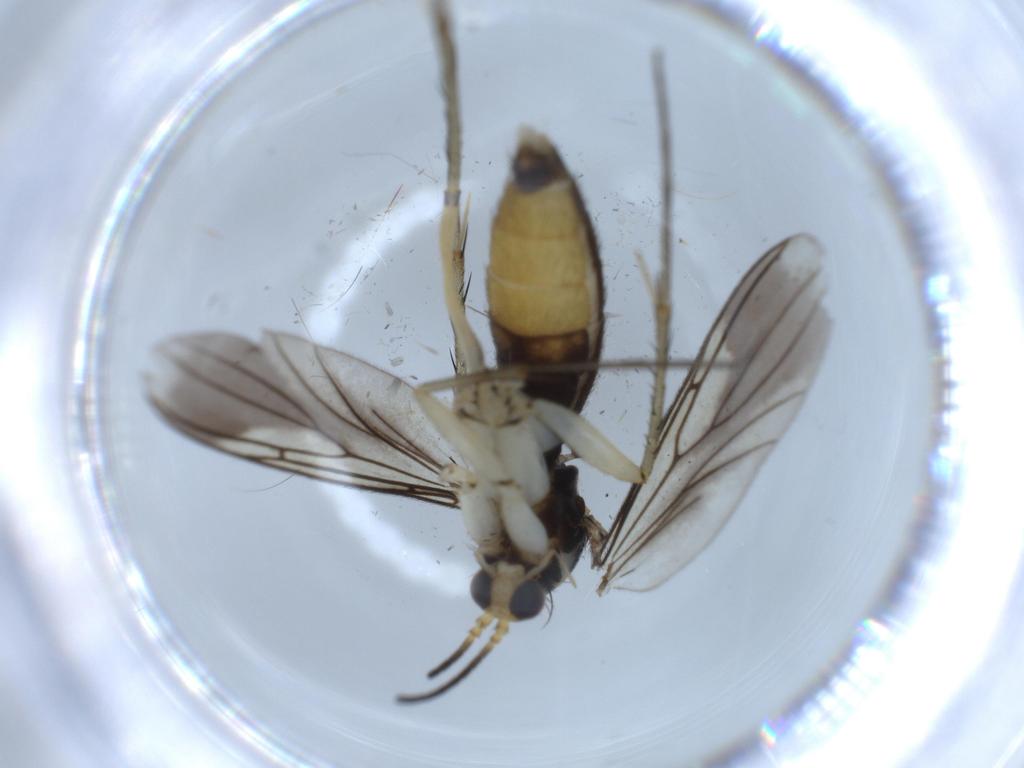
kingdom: Animalia
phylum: Arthropoda
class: Insecta
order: Diptera
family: Mycetophilidae
